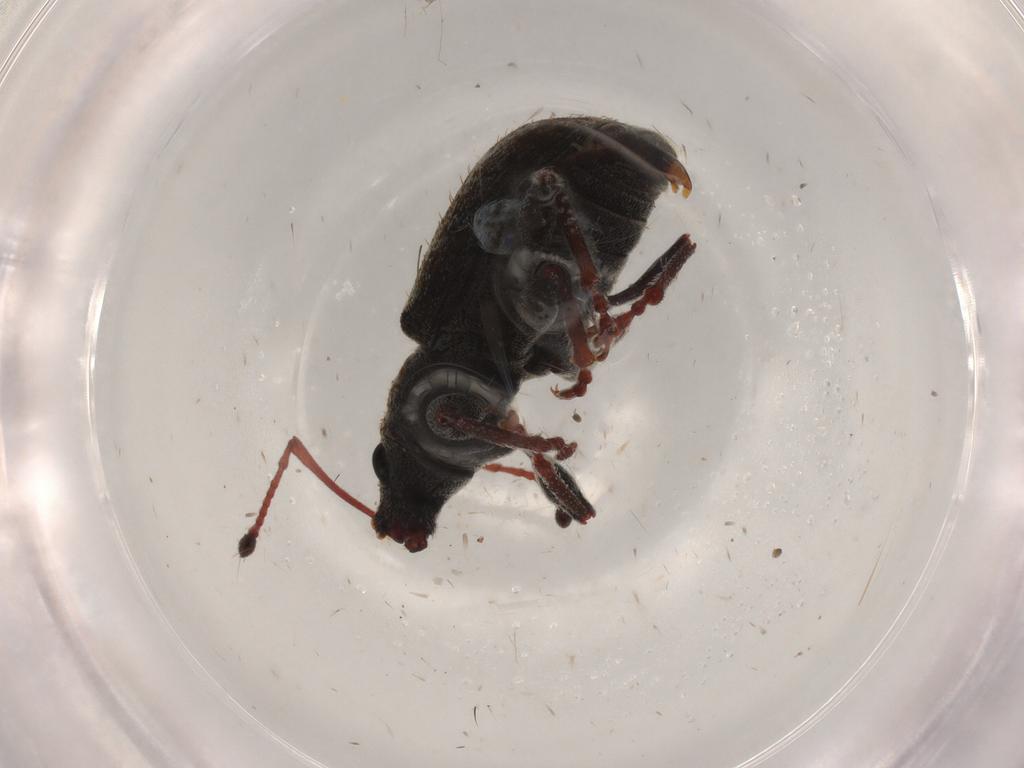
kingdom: Animalia
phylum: Arthropoda
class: Insecta
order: Coleoptera
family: Curculionidae
